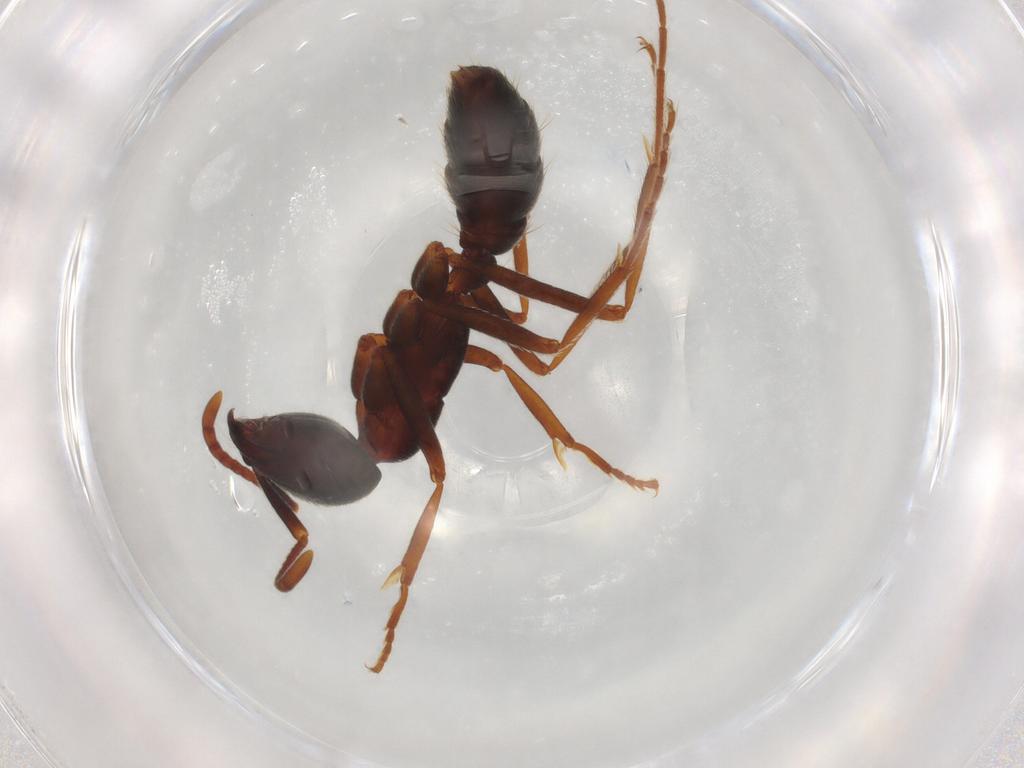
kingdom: Animalia
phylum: Arthropoda
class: Insecta
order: Hymenoptera
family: Formicidae
